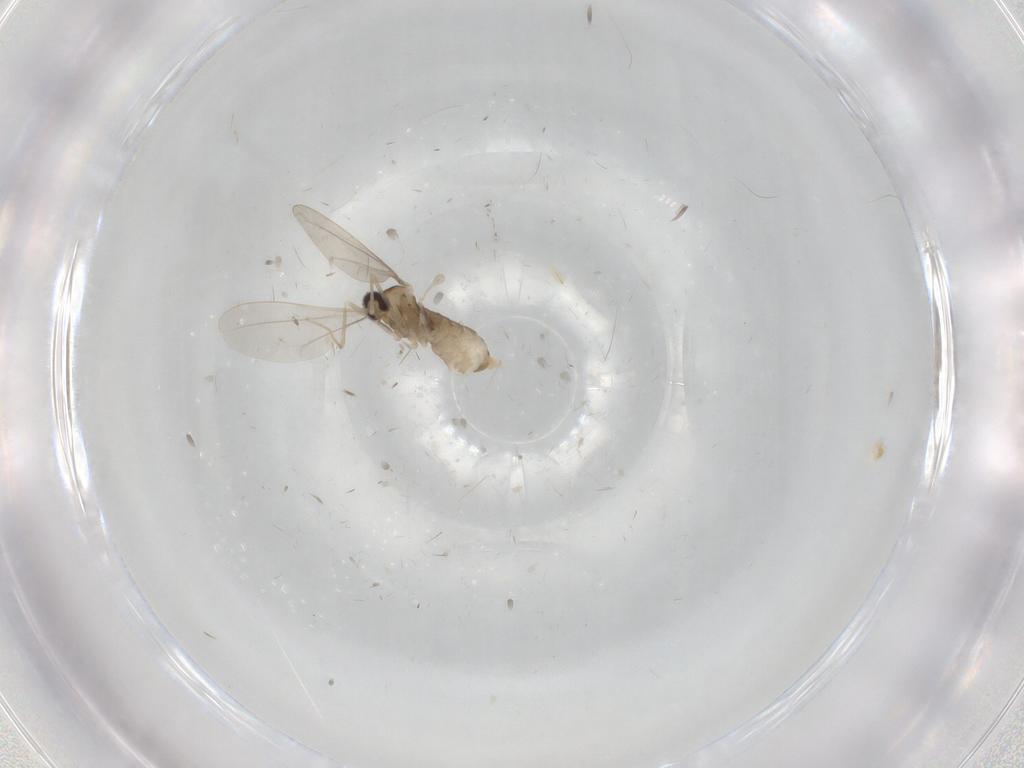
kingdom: Animalia
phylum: Arthropoda
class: Insecta
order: Diptera
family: Cecidomyiidae
